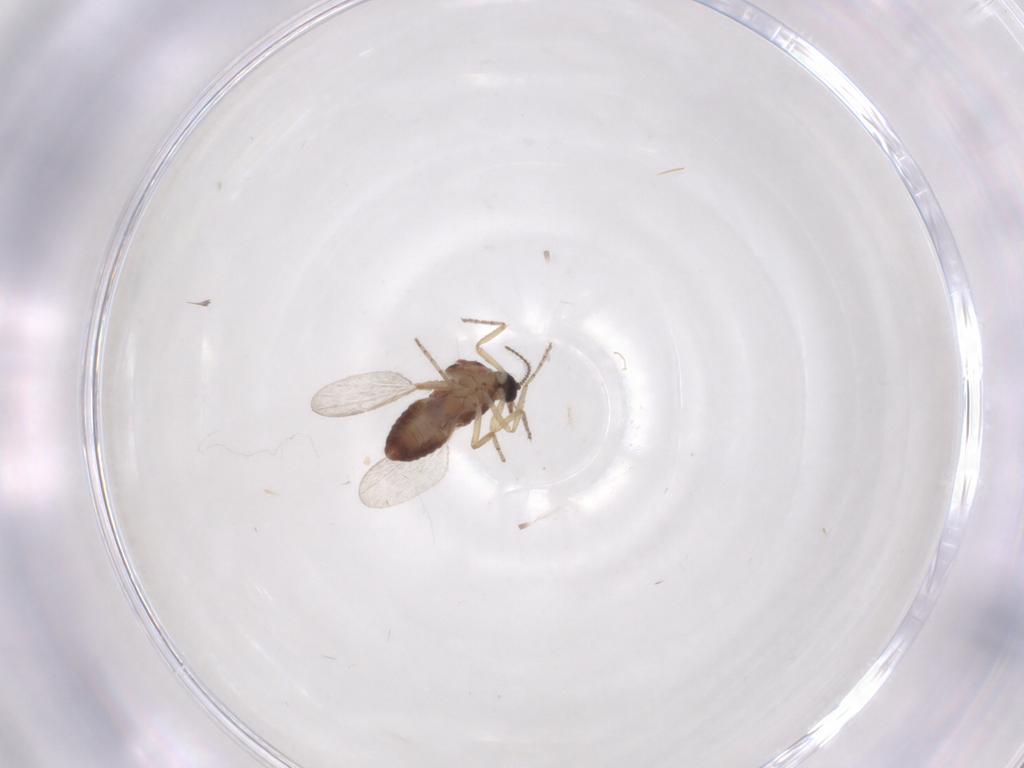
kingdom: Animalia
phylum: Arthropoda
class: Insecta
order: Diptera
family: Ceratopogonidae
